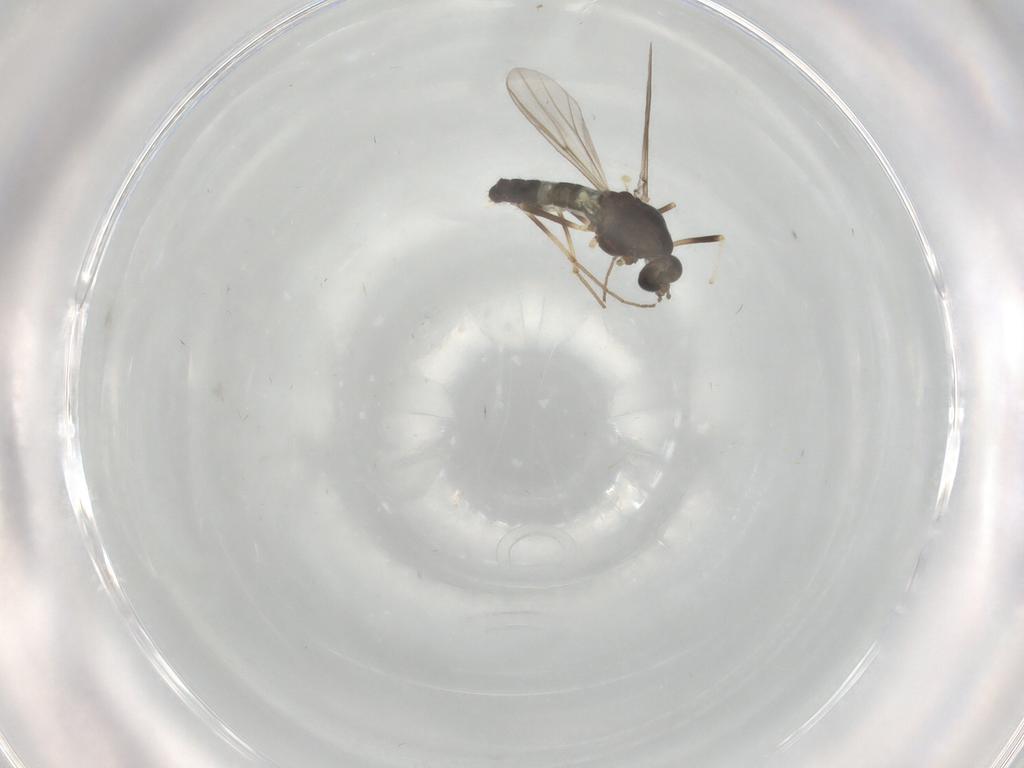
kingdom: Animalia
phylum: Arthropoda
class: Insecta
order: Diptera
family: Chironomidae
